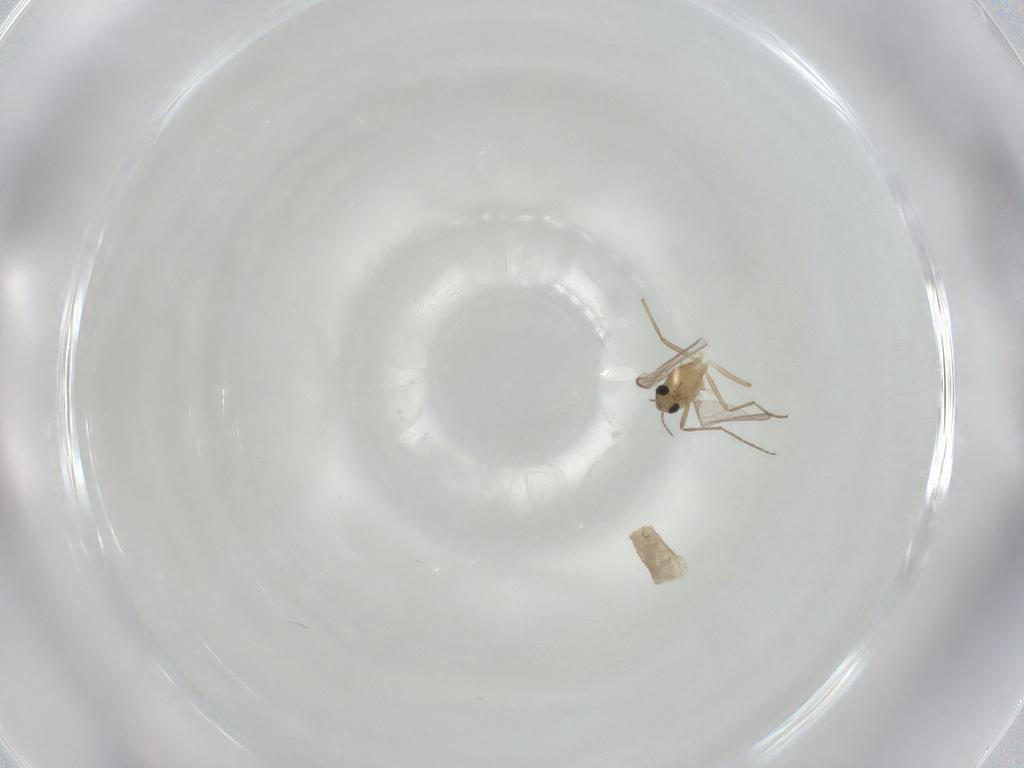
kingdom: Animalia
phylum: Arthropoda
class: Insecta
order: Diptera
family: Chironomidae
